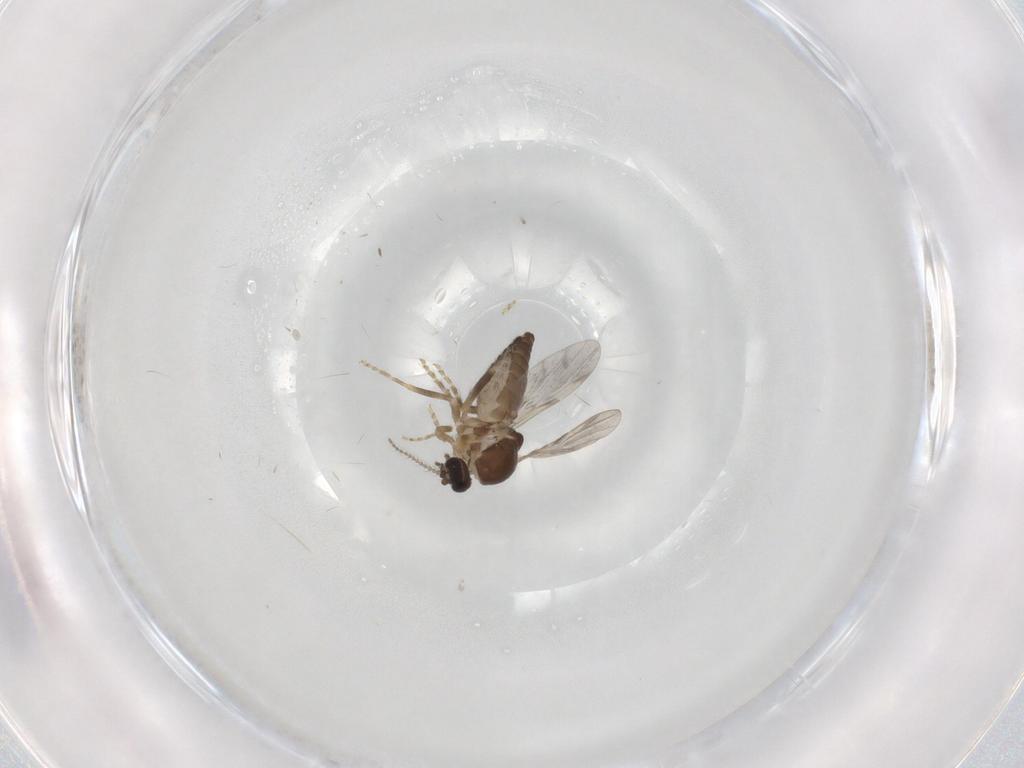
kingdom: Animalia
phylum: Arthropoda
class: Insecta
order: Diptera
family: Ceratopogonidae
